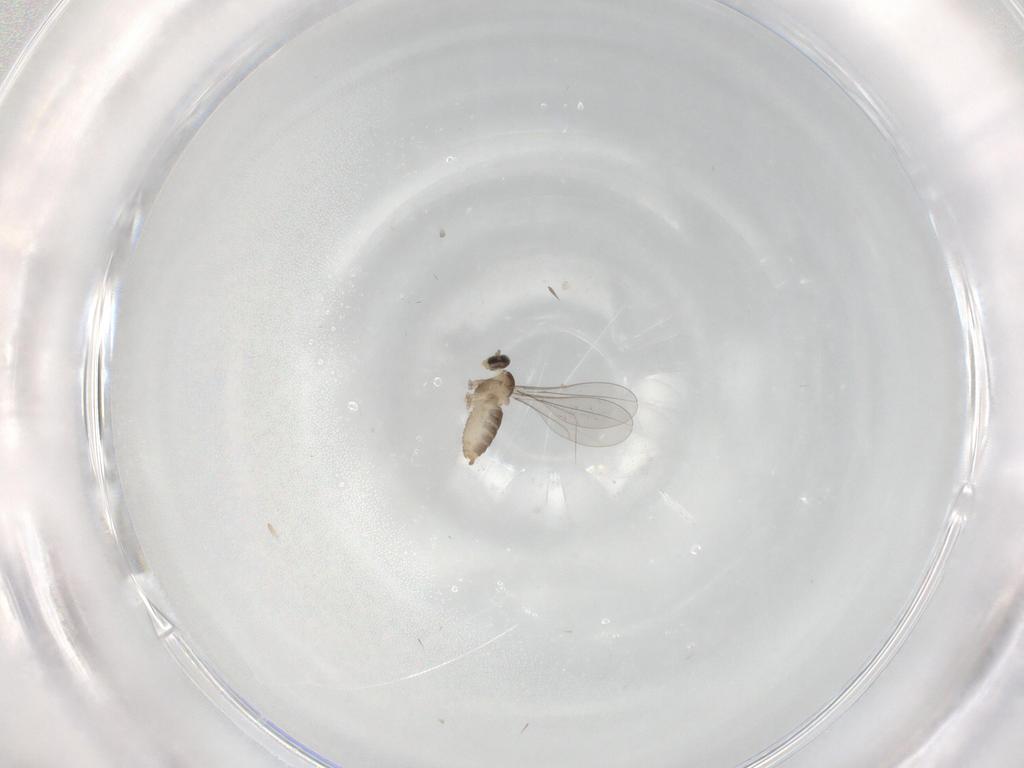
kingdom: Animalia
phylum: Arthropoda
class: Insecta
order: Diptera
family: Cecidomyiidae
